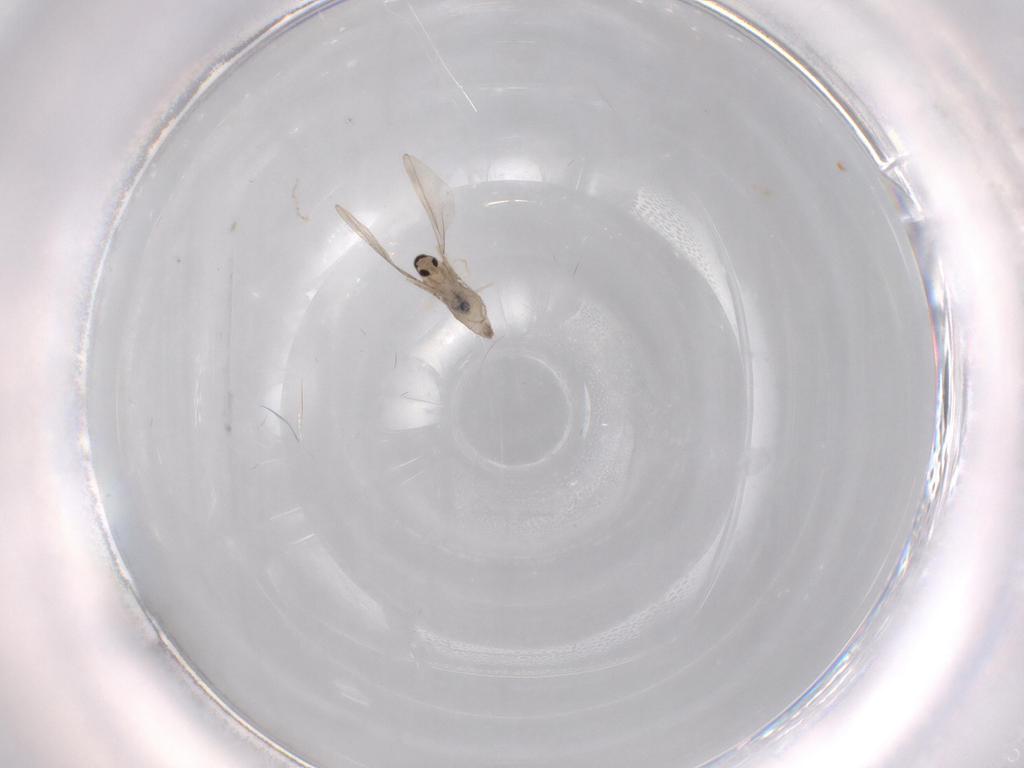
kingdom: Animalia
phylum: Arthropoda
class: Insecta
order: Diptera
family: Cecidomyiidae
